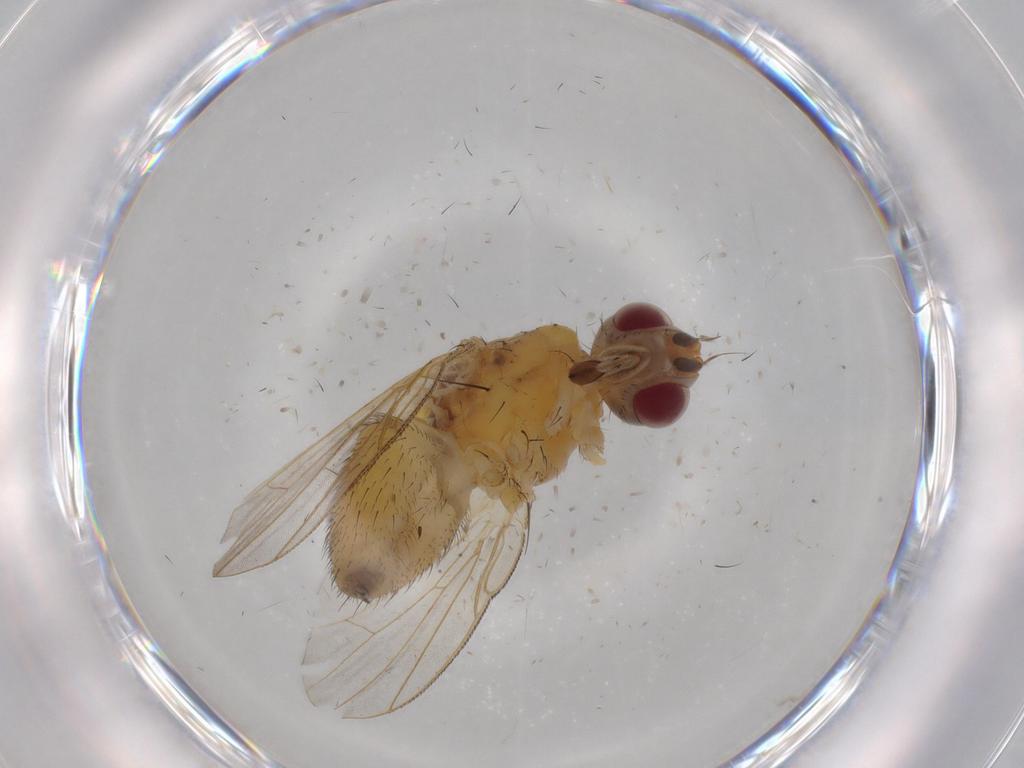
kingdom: Animalia
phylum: Arthropoda
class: Insecta
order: Diptera
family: Muscidae
